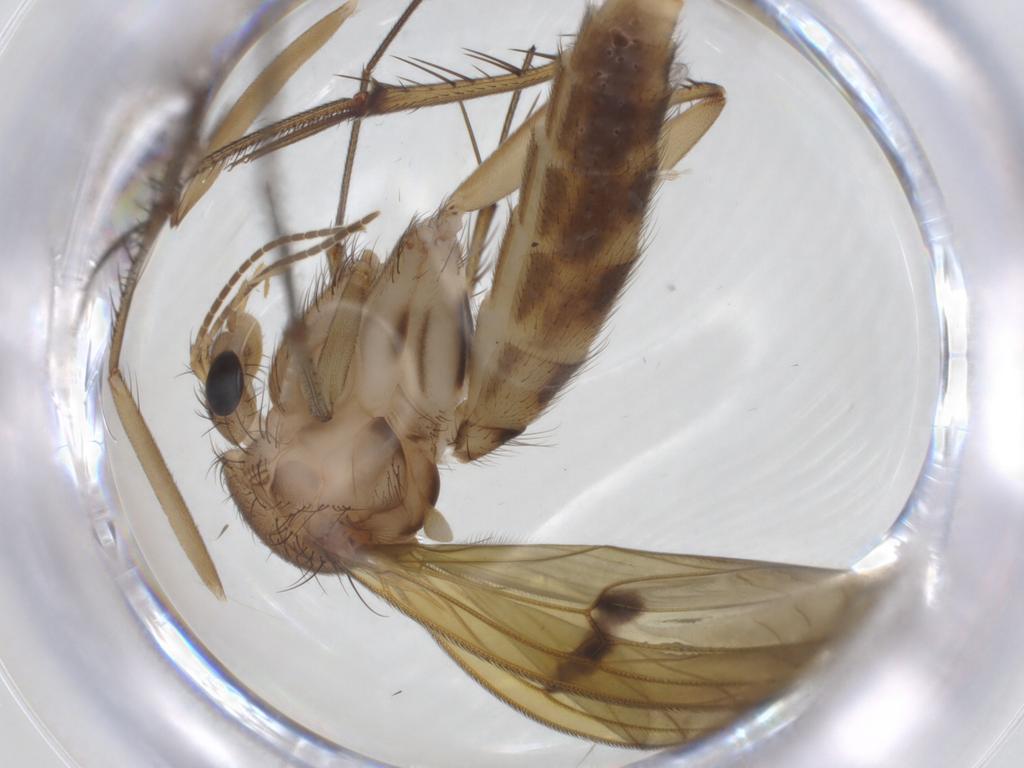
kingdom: Animalia
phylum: Arthropoda
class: Insecta
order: Diptera
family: Mycetophilidae
